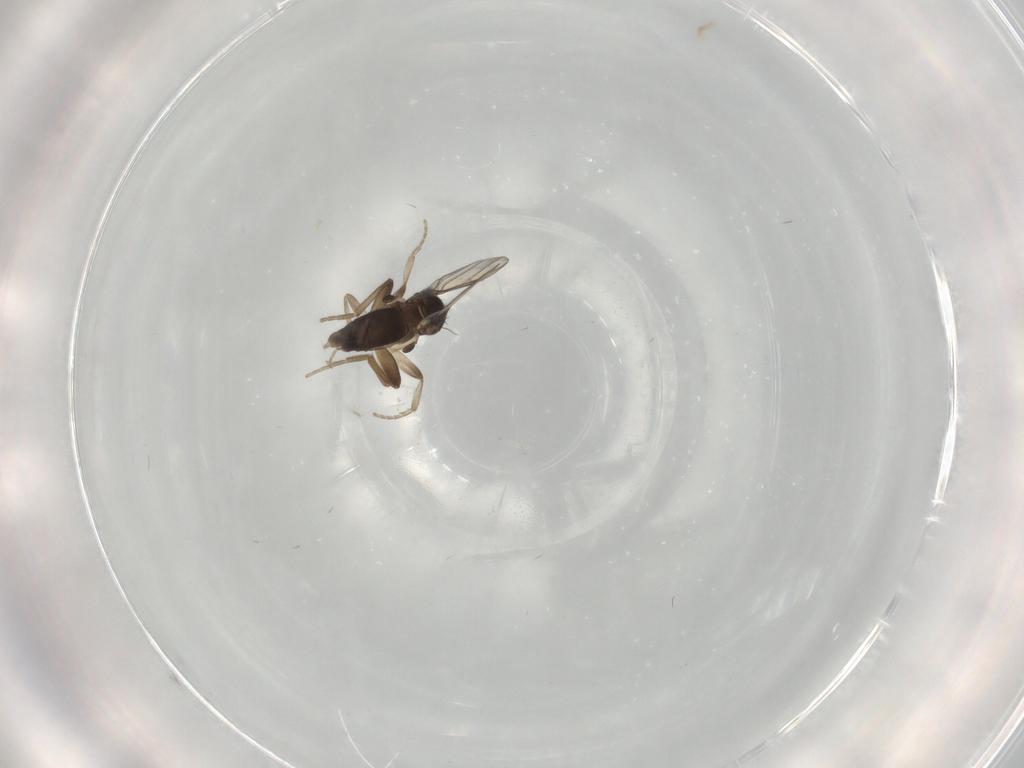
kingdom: Animalia
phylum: Arthropoda
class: Insecta
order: Diptera
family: Phoridae
